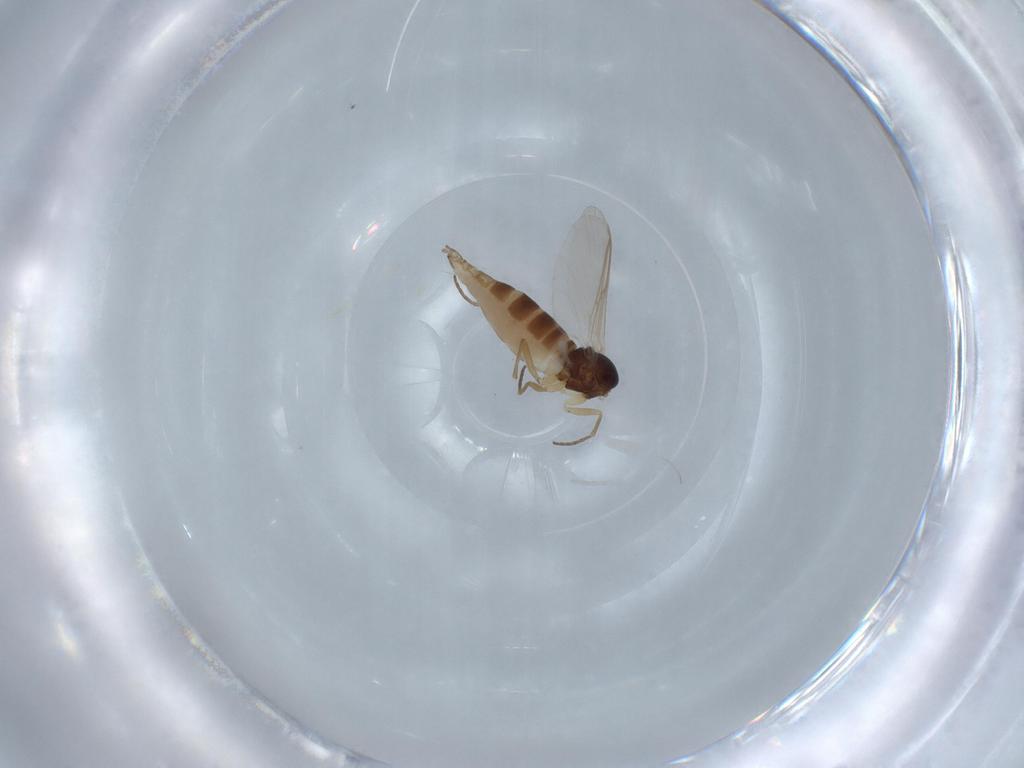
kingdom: Animalia
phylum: Arthropoda
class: Insecta
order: Diptera
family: Sciaridae
